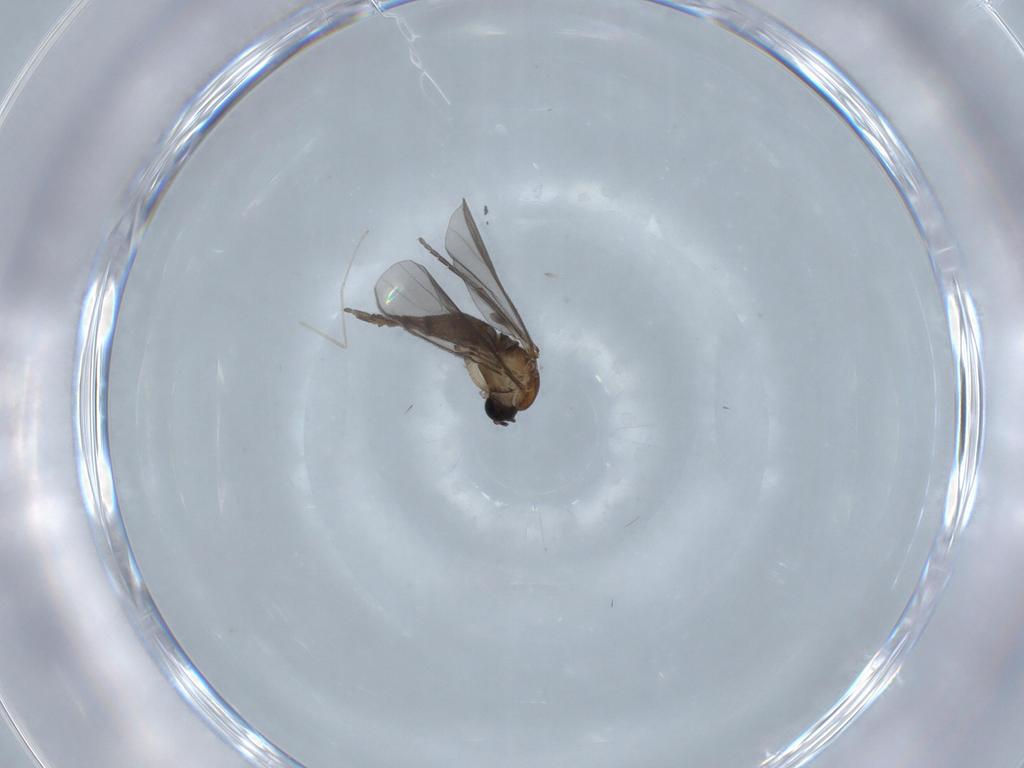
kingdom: Animalia
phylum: Arthropoda
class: Insecta
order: Diptera
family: Sciaridae
